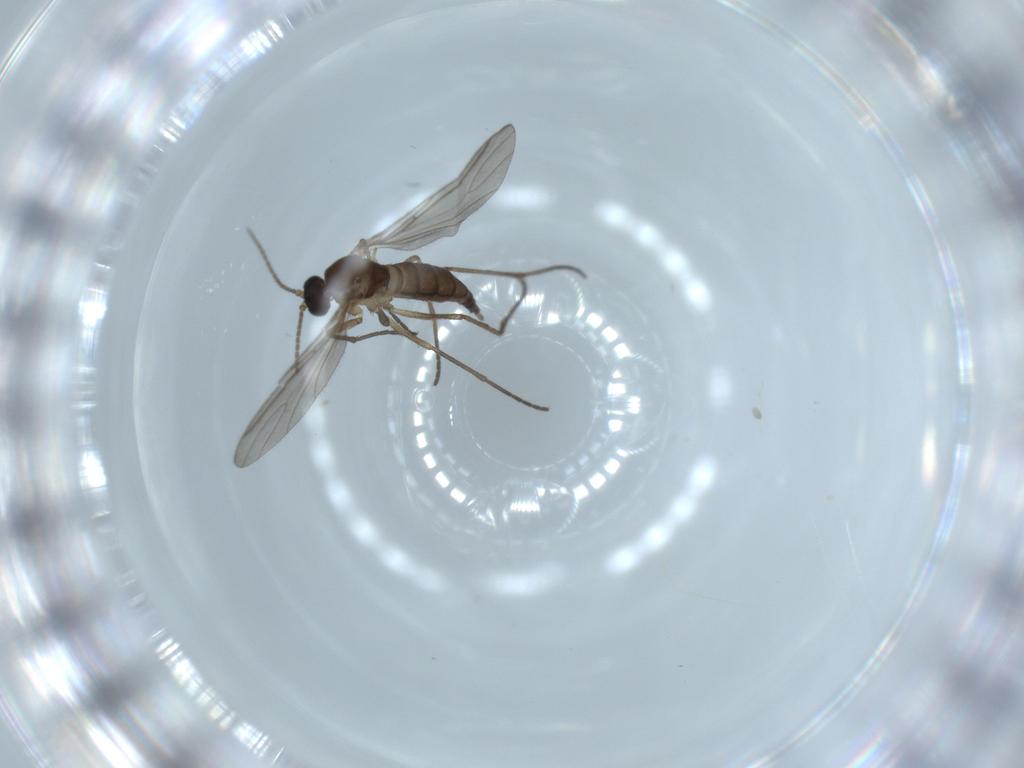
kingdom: Animalia
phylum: Arthropoda
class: Insecta
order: Diptera
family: Sciaridae
